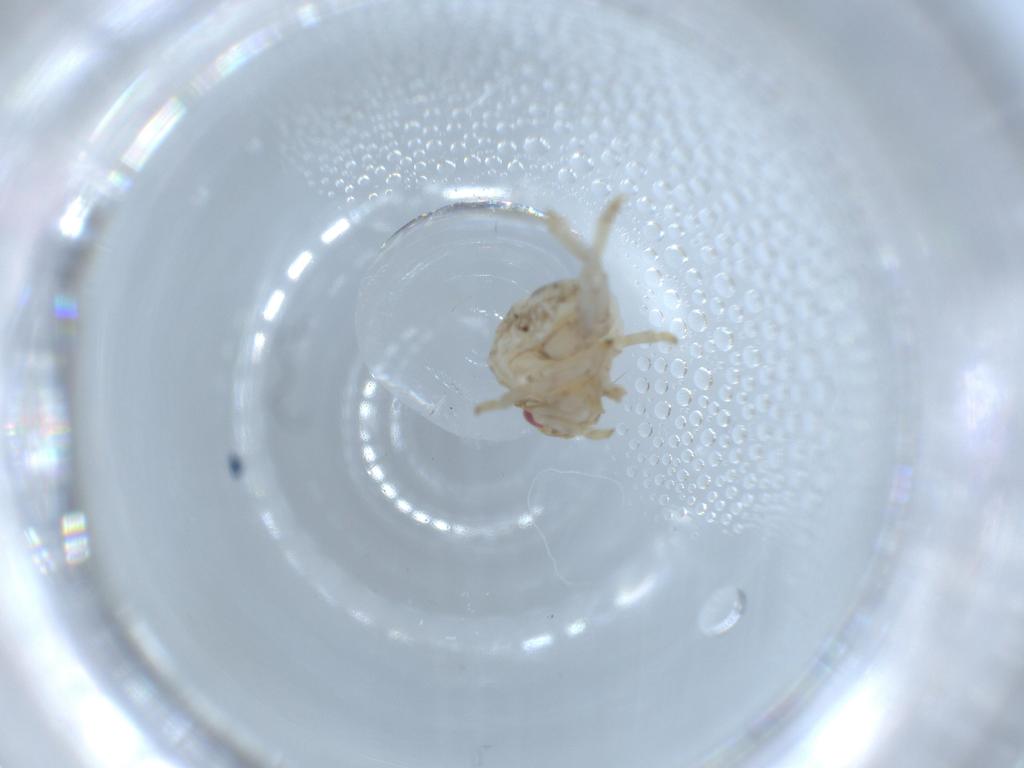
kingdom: Animalia
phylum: Arthropoda
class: Insecta
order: Hemiptera
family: Acanaloniidae
